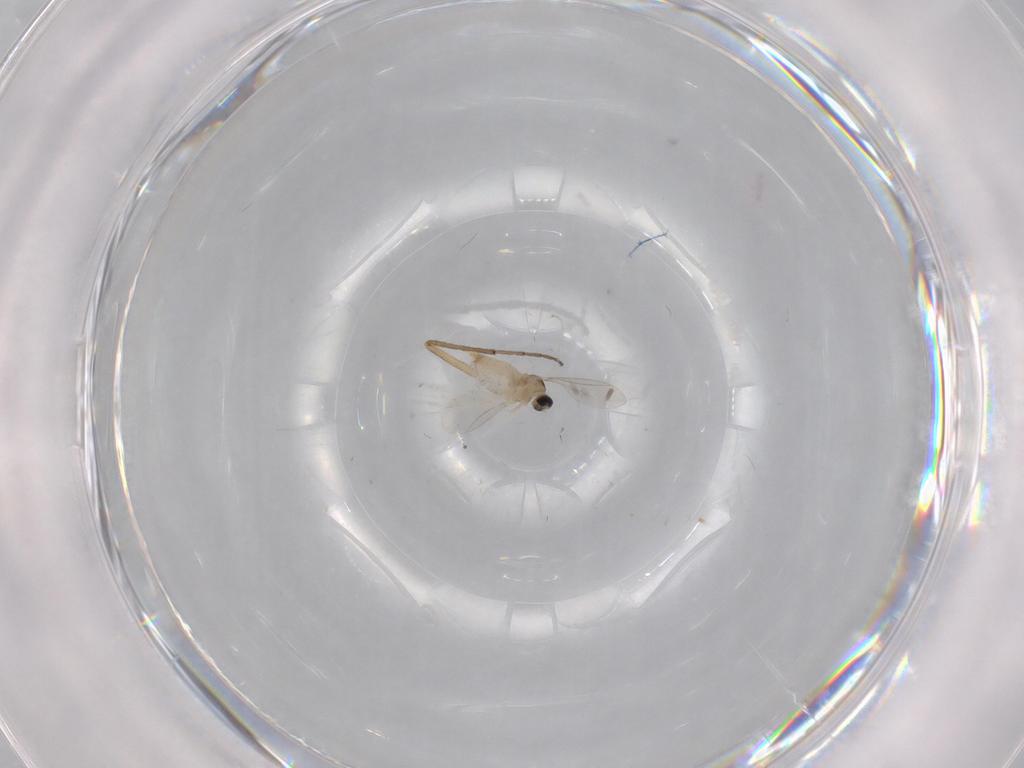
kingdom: Animalia
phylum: Arthropoda
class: Insecta
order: Diptera
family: Cecidomyiidae
